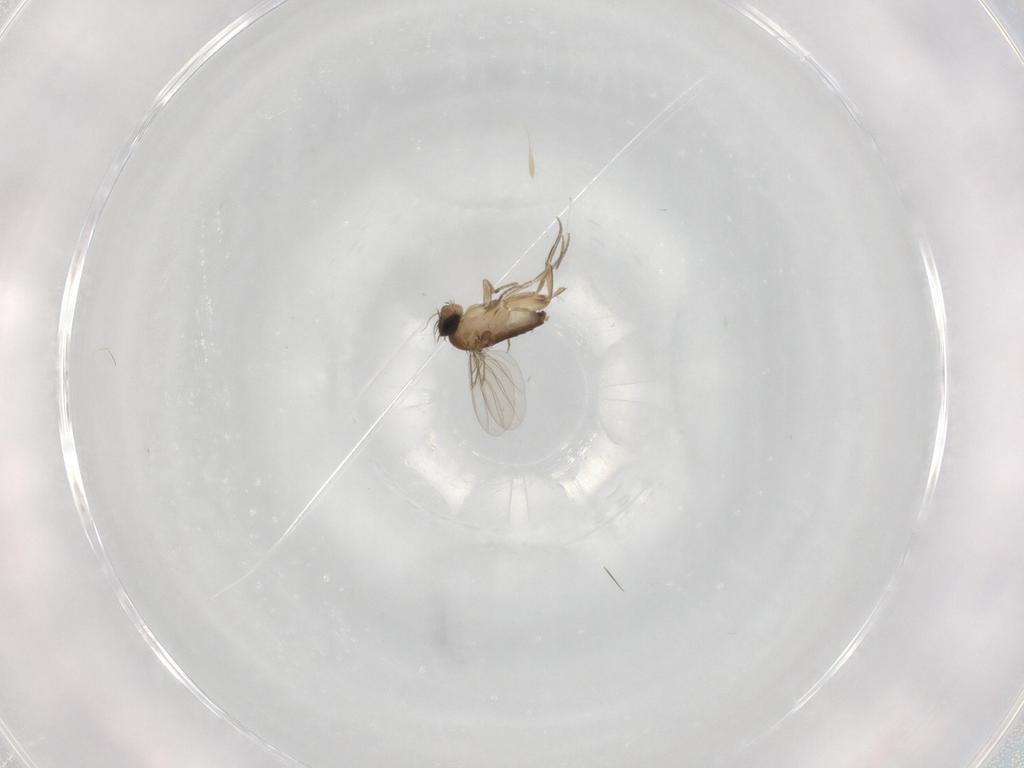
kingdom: Animalia
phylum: Arthropoda
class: Insecta
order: Diptera
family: Phoridae
